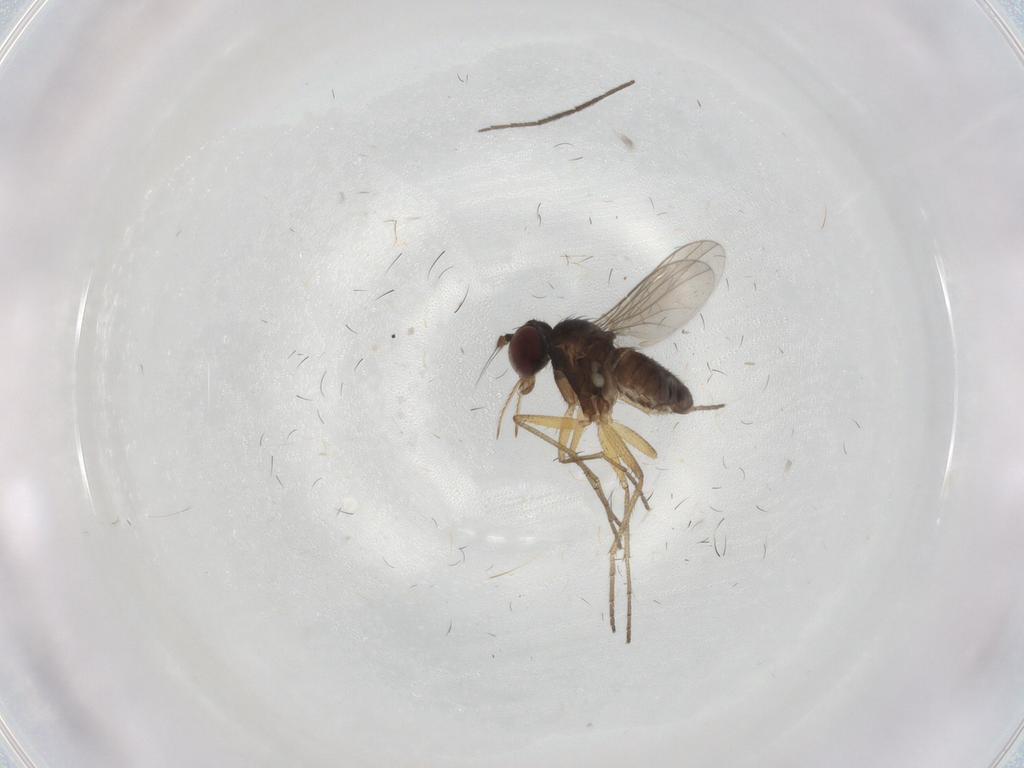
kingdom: Animalia
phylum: Arthropoda
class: Insecta
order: Diptera
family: Dolichopodidae
